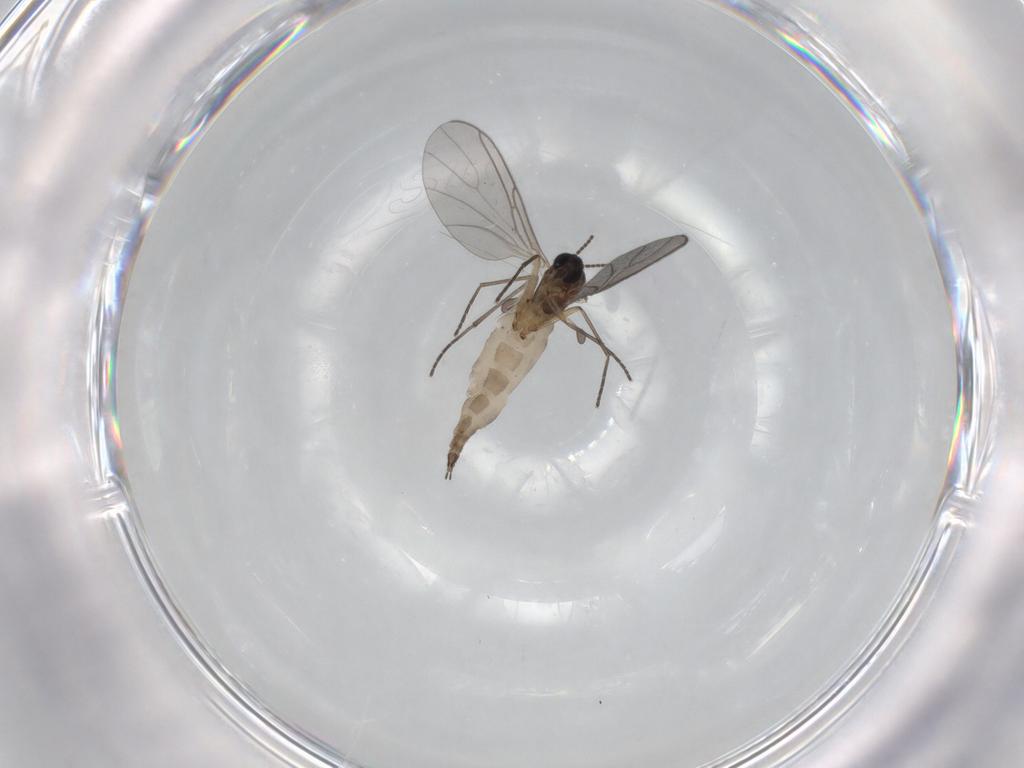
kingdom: Animalia
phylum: Arthropoda
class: Insecta
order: Diptera
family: Sciaridae
